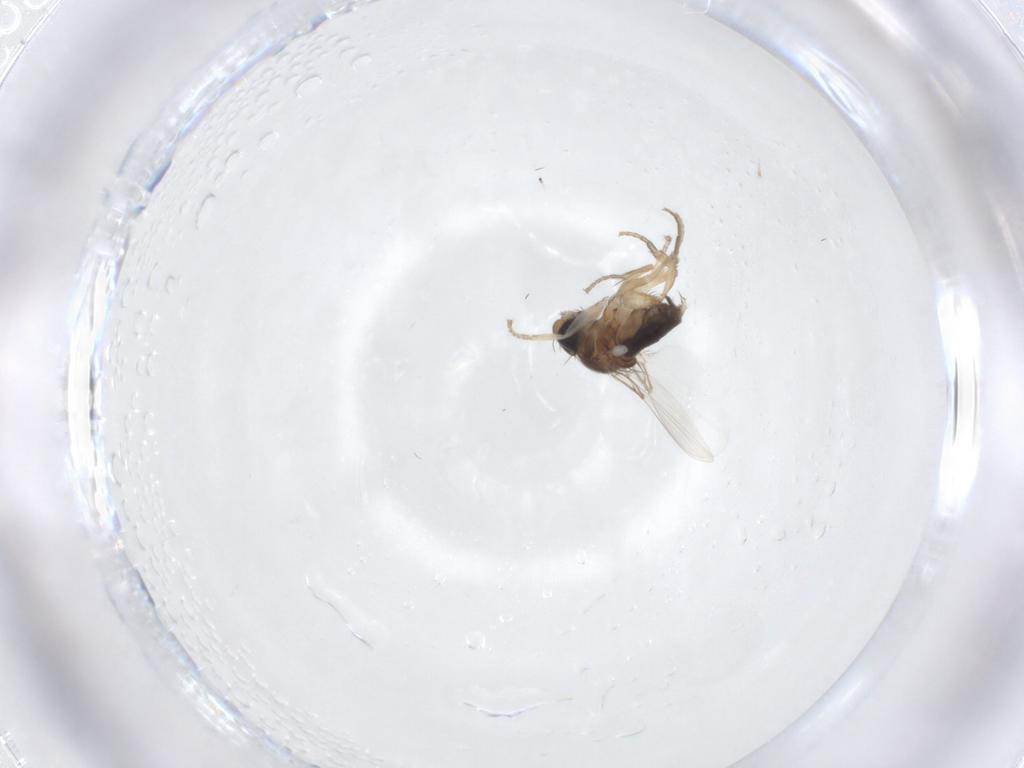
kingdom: Animalia
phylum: Arthropoda
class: Insecta
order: Diptera
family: Phoridae
